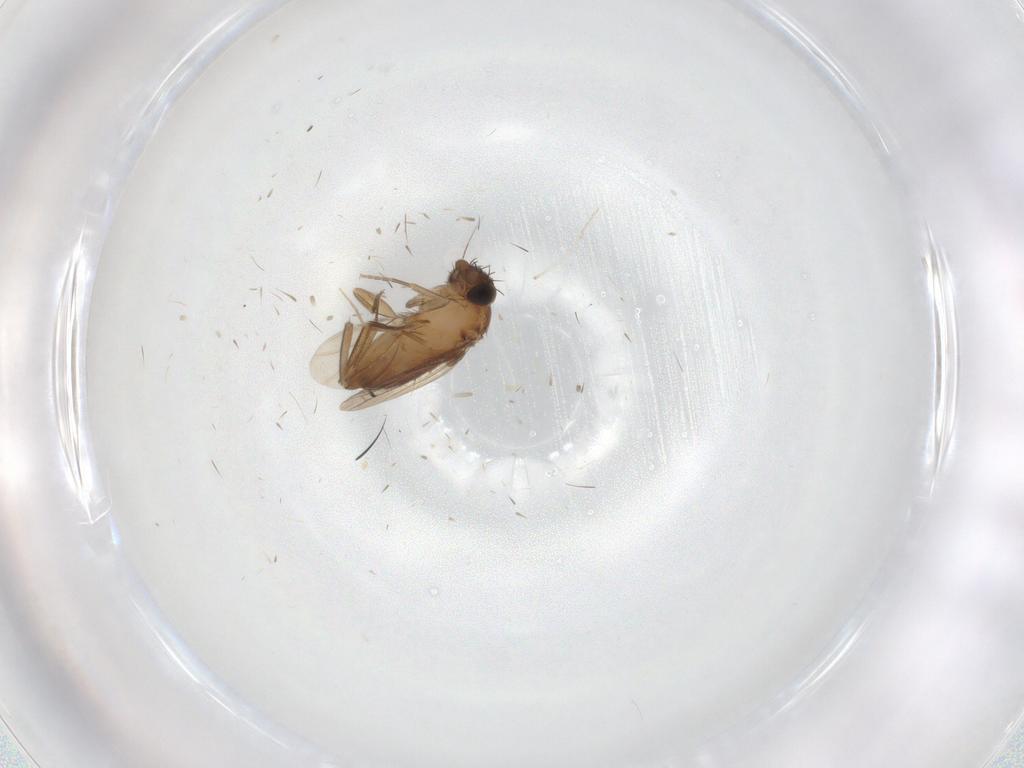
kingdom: Animalia
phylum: Arthropoda
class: Insecta
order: Diptera
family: Phoridae
